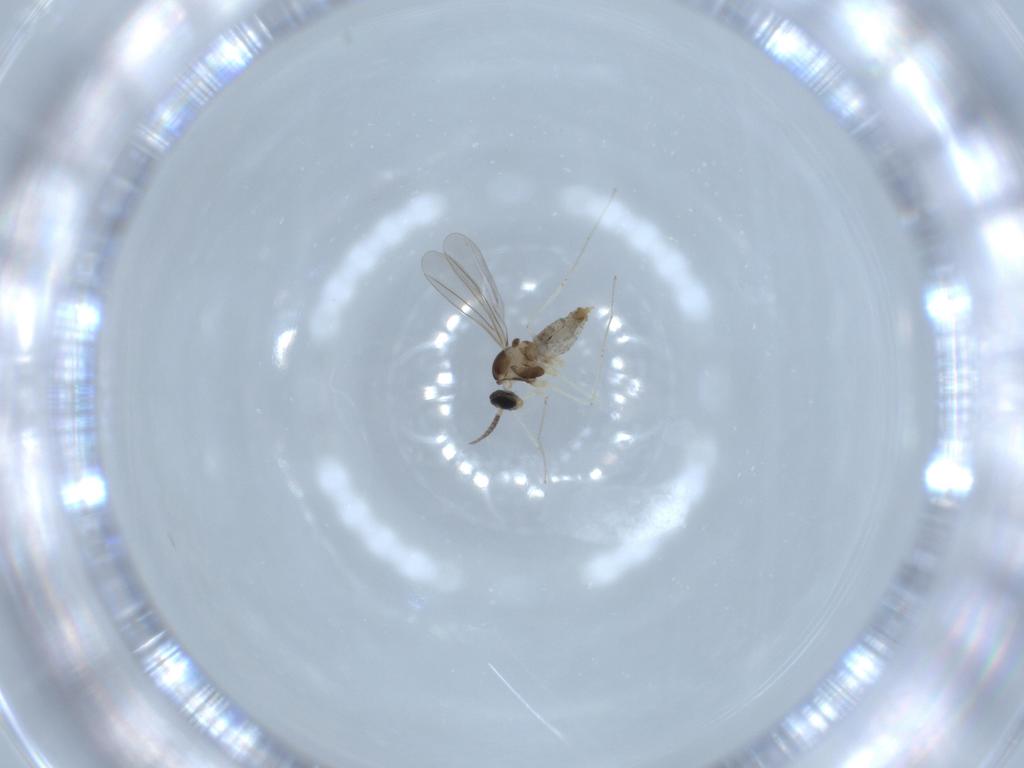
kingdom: Animalia
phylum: Arthropoda
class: Insecta
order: Diptera
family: Cecidomyiidae
